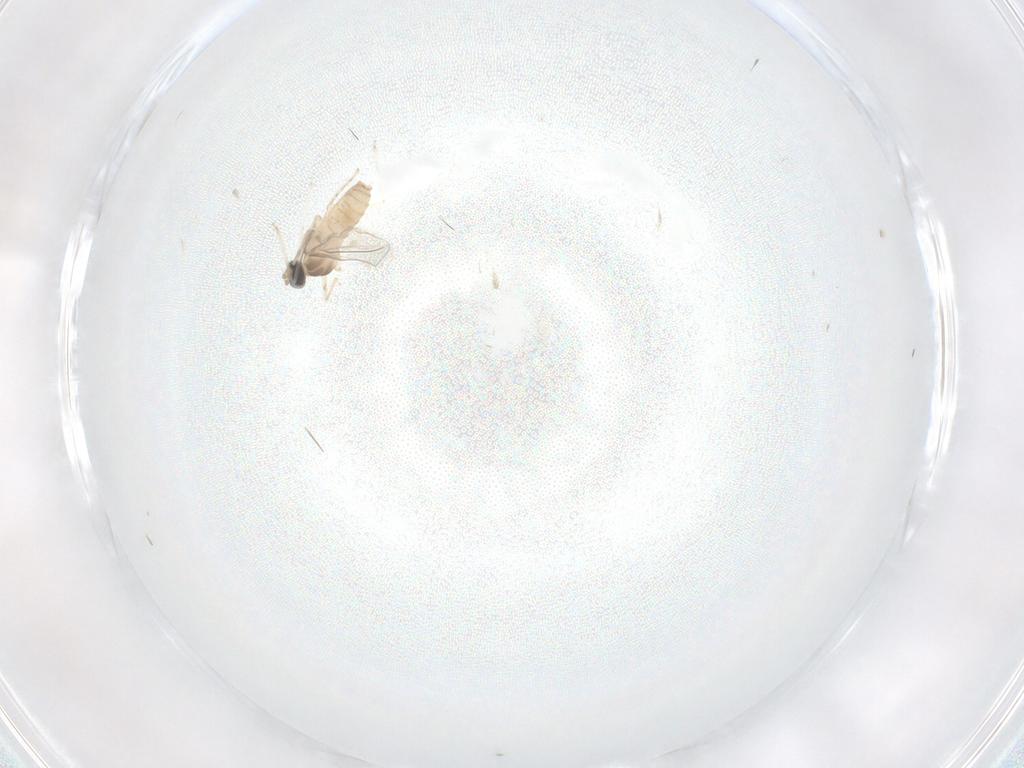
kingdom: Animalia
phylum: Arthropoda
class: Insecta
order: Diptera
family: Cecidomyiidae
